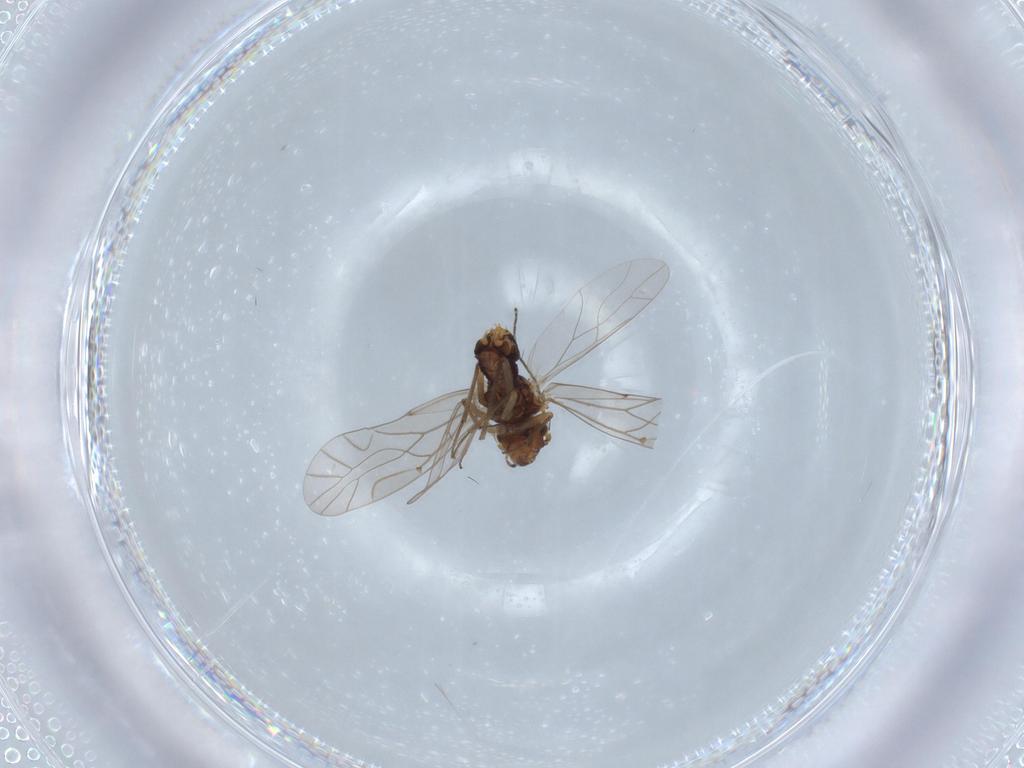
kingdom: Animalia
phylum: Arthropoda
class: Insecta
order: Psocodea
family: Lachesillidae
